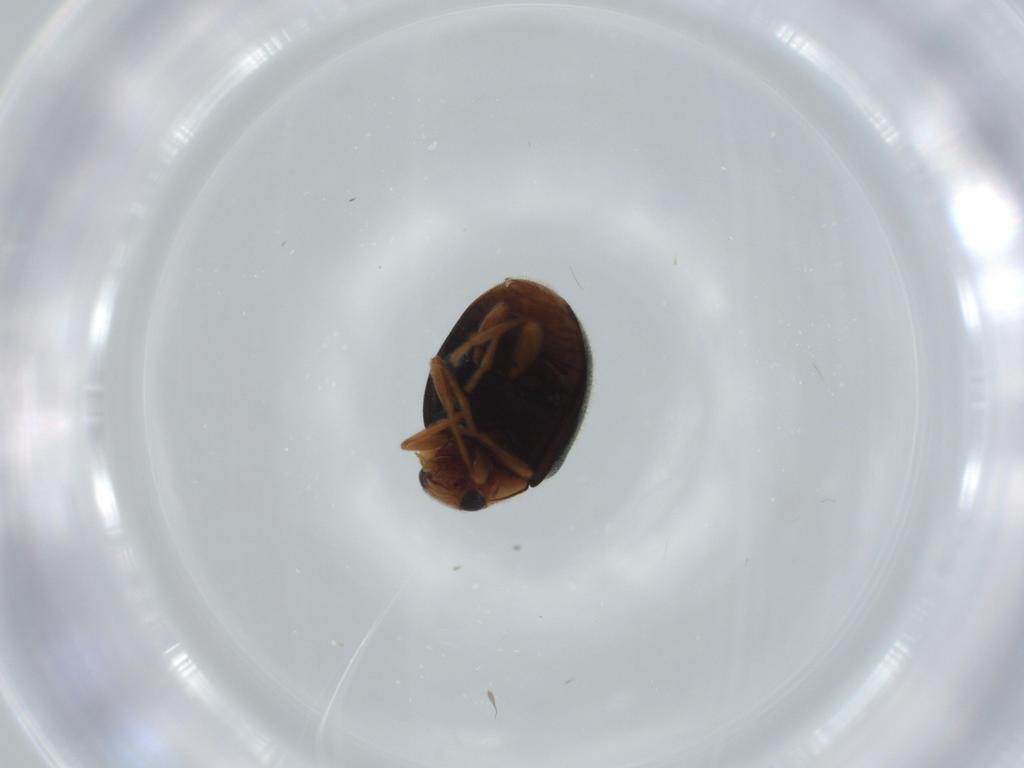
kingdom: Animalia
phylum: Arthropoda
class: Insecta
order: Coleoptera
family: Coccinellidae
